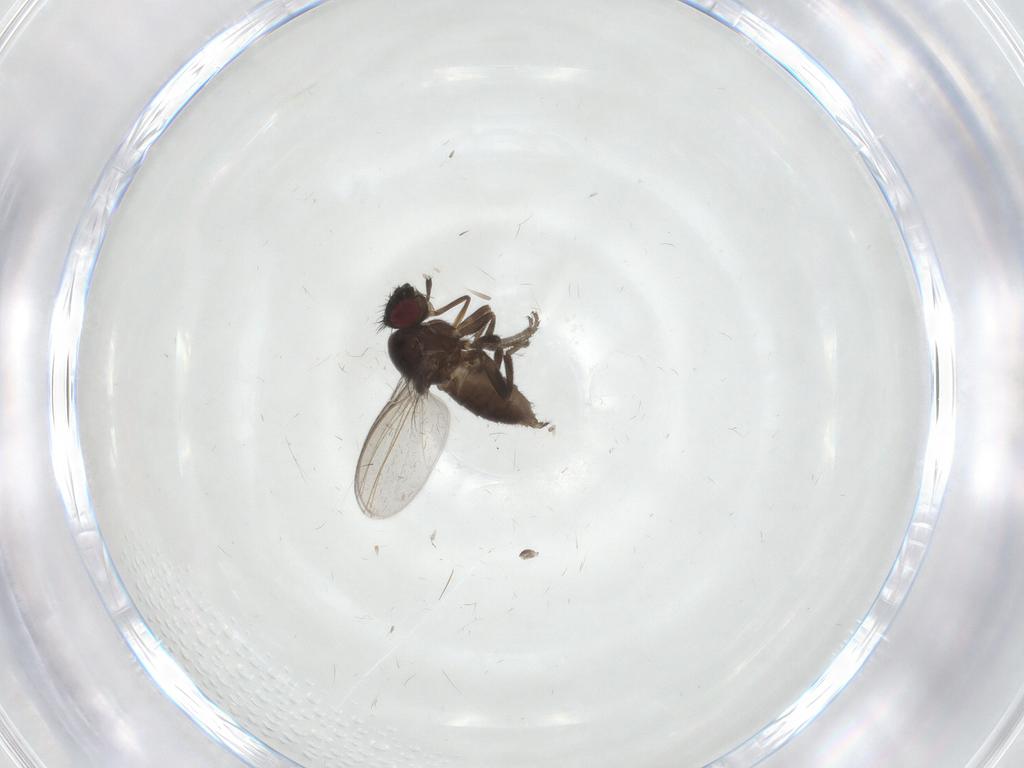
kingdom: Animalia
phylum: Arthropoda
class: Insecta
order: Diptera
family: Milichiidae
